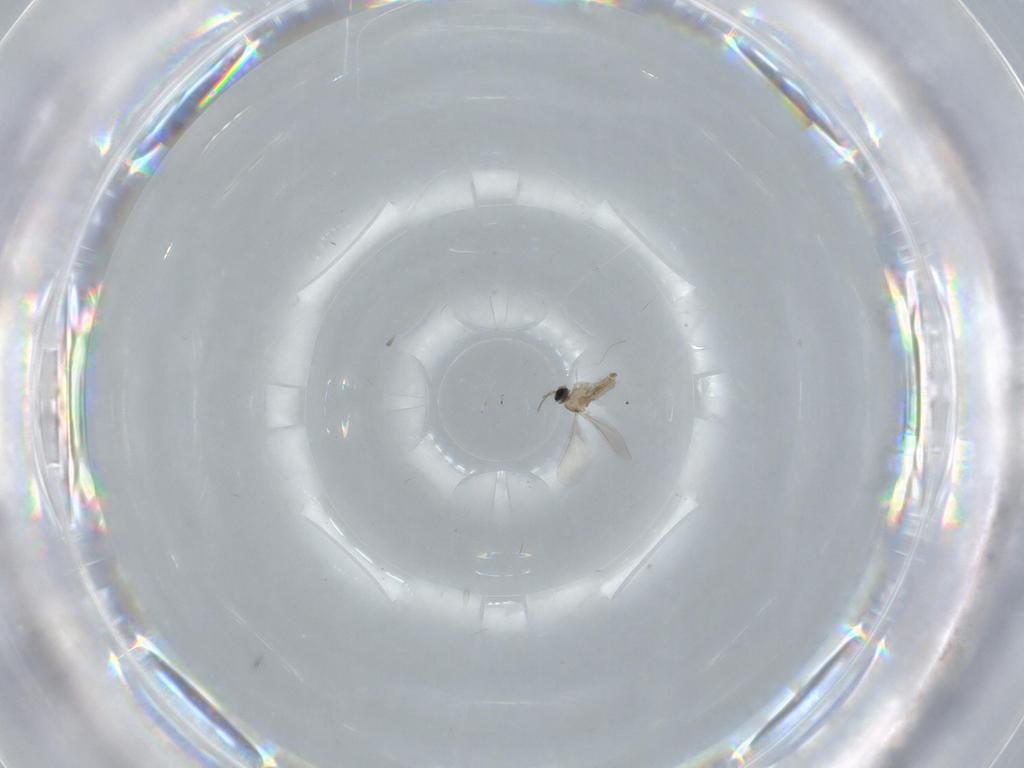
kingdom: Animalia
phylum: Arthropoda
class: Insecta
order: Diptera
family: Cecidomyiidae
